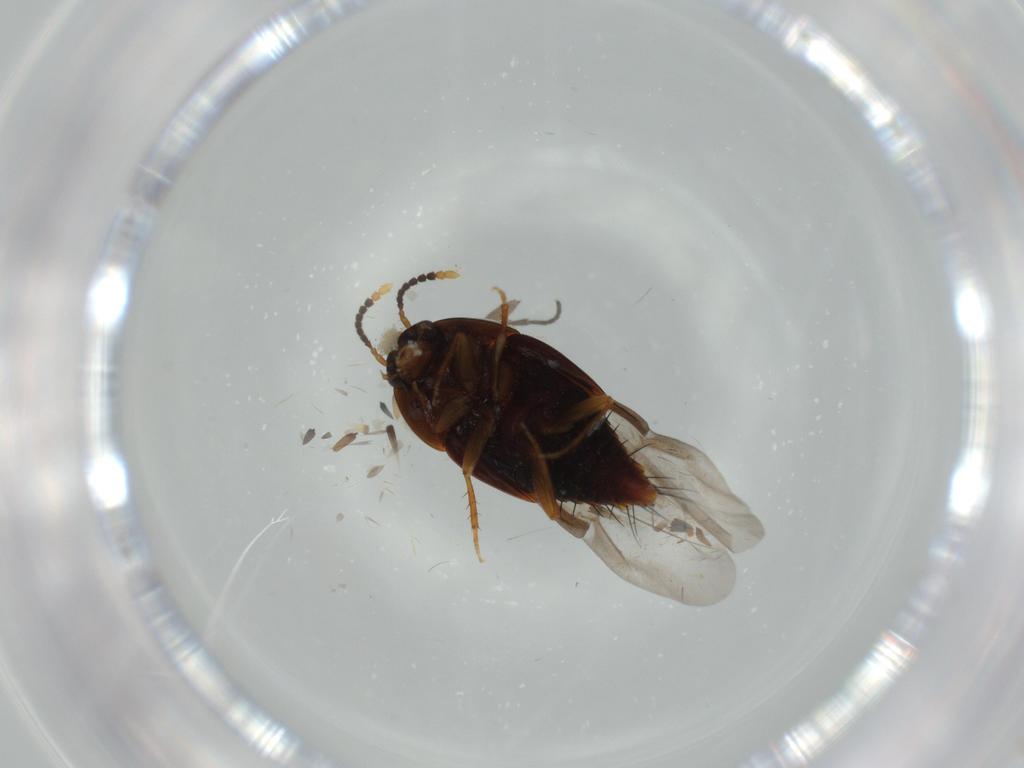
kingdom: Animalia
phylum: Arthropoda
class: Insecta
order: Coleoptera
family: Staphylinidae
